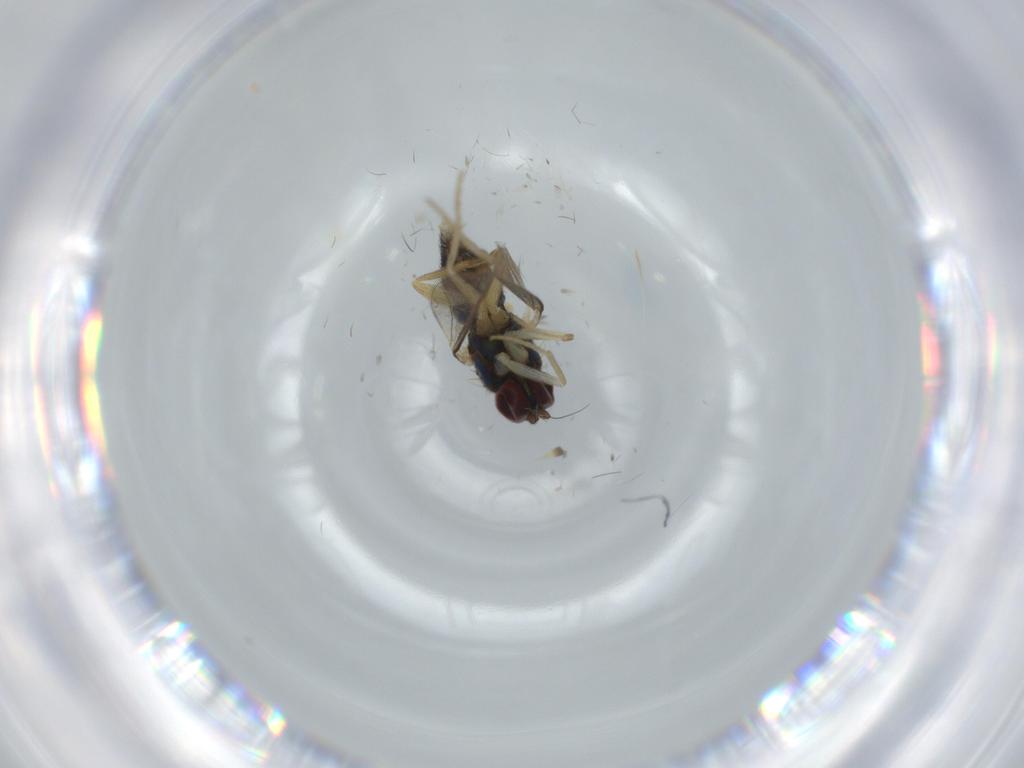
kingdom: Animalia
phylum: Arthropoda
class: Insecta
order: Diptera
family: Dolichopodidae
